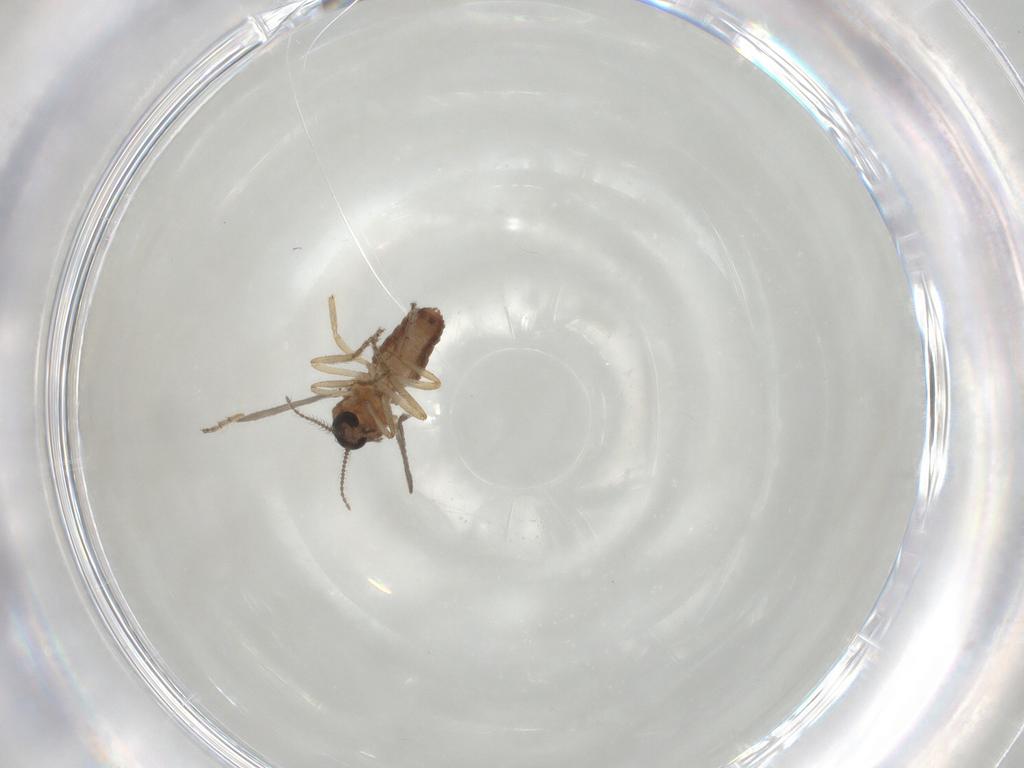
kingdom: Animalia
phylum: Arthropoda
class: Insecta
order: Diptera
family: Ceratopogonidae
